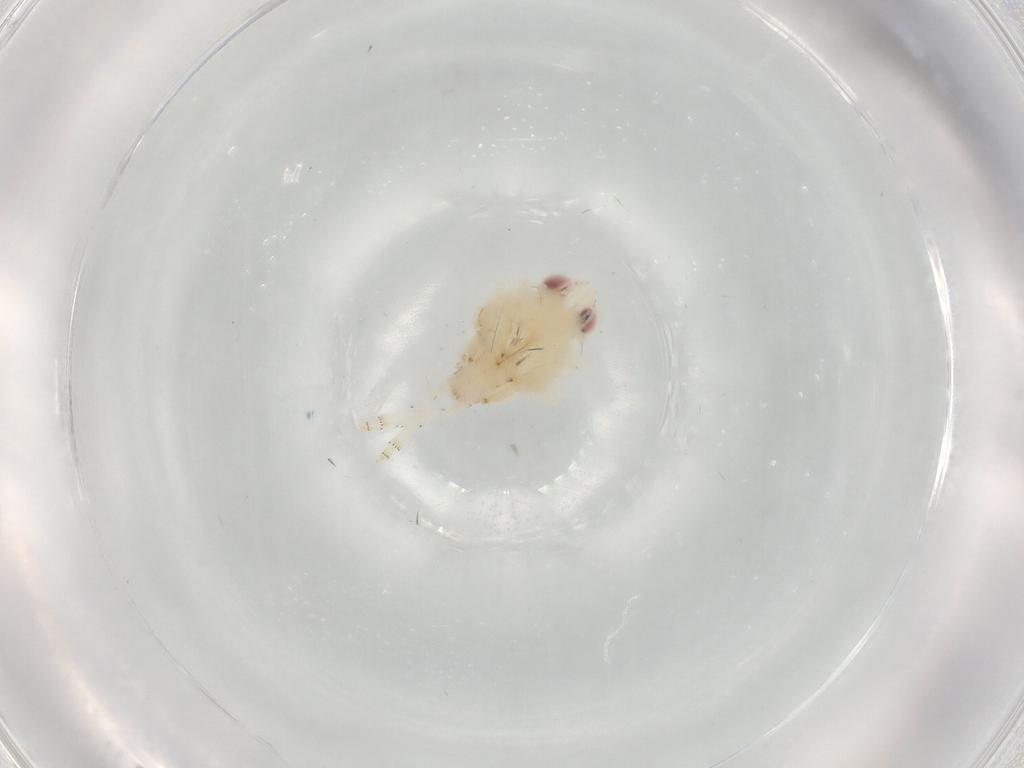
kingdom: Animalia
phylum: Arthropoda
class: Insecta
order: Hemiptera
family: Nogodinidae
